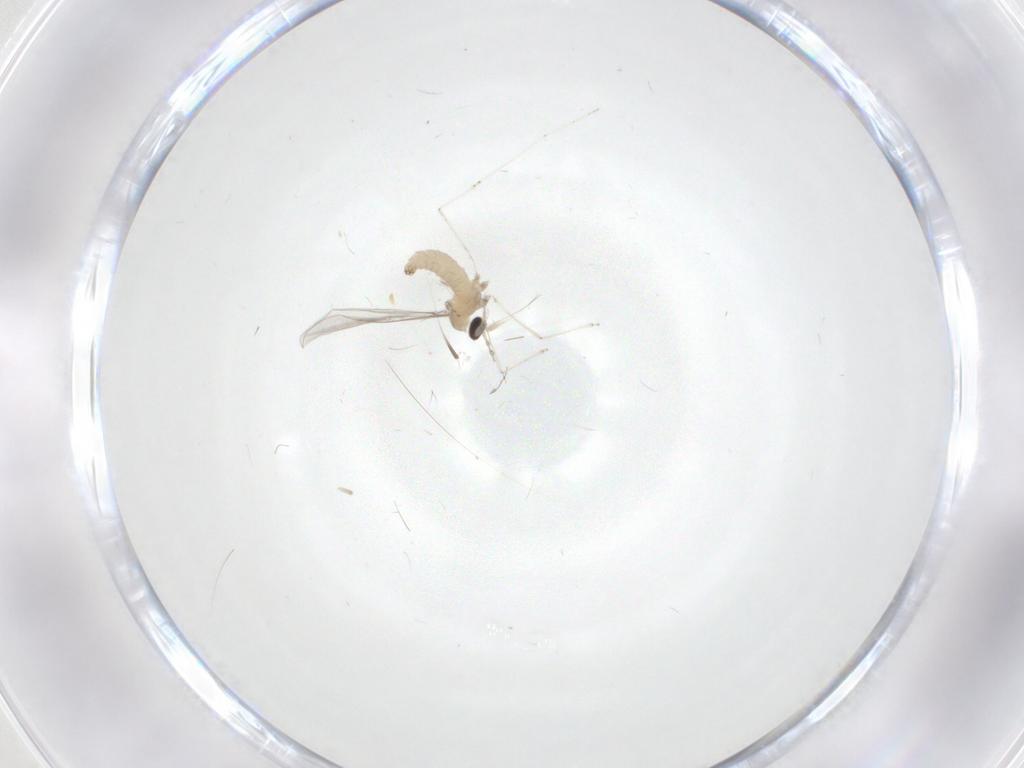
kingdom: Animalia
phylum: Arthropoda
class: Insecta
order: Diptera
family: Cecidomyiidae
